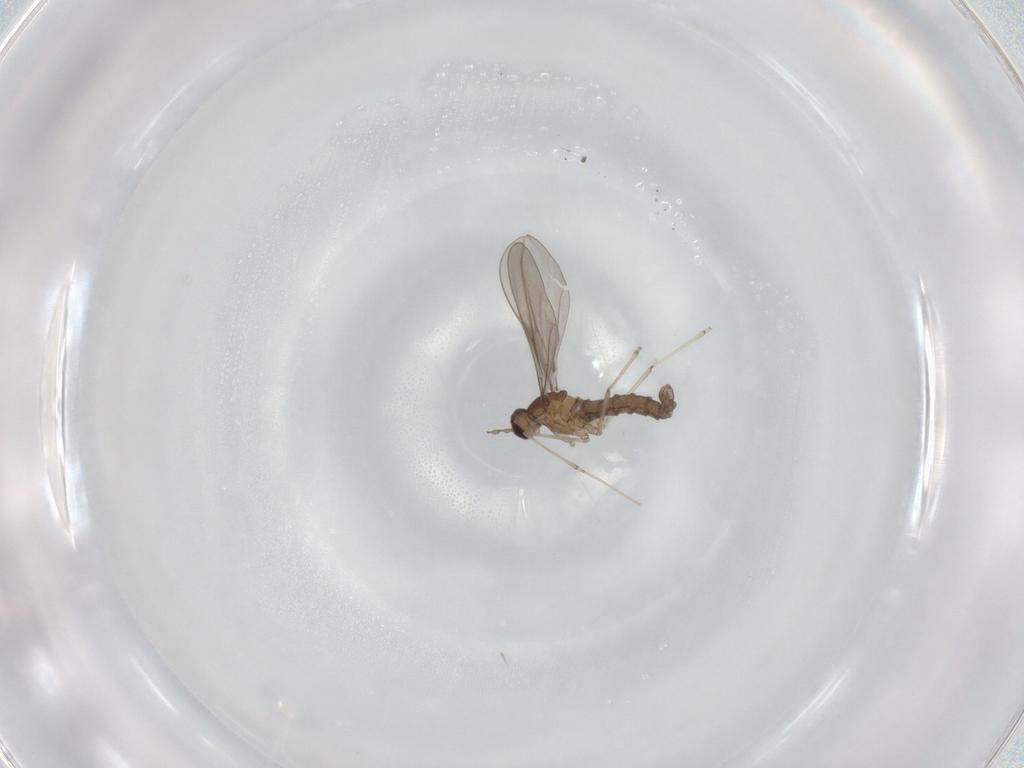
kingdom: Animalia
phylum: Arthropoda
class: Insecta
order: Diptera
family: Cecidomyiidae
